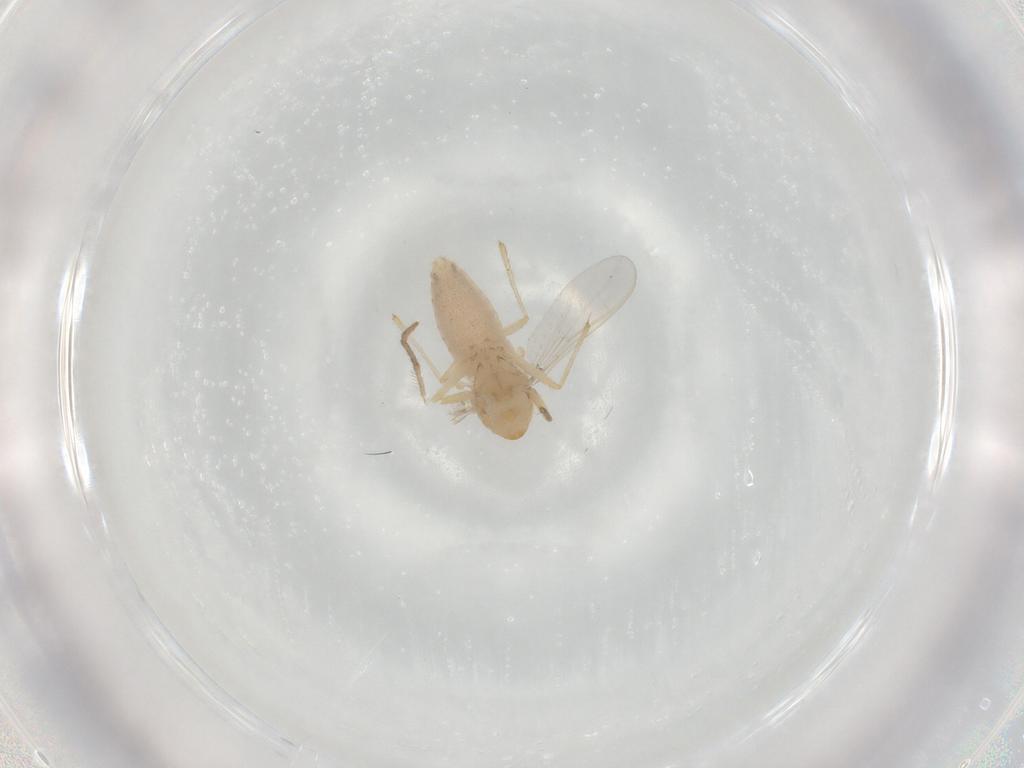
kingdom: Animalia
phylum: Arthropoda
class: Insecta
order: Diptera
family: Chironomidae
